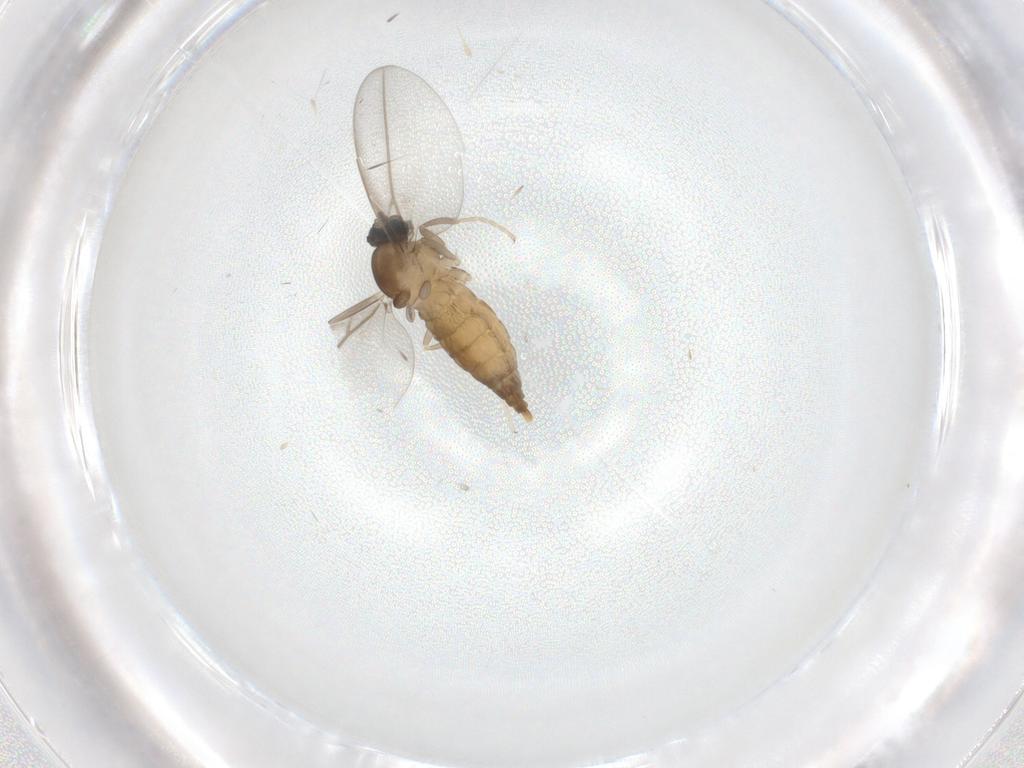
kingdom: Animalia
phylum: Arthropoda
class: Insecta
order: Diptera
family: Cecidomyiidae
